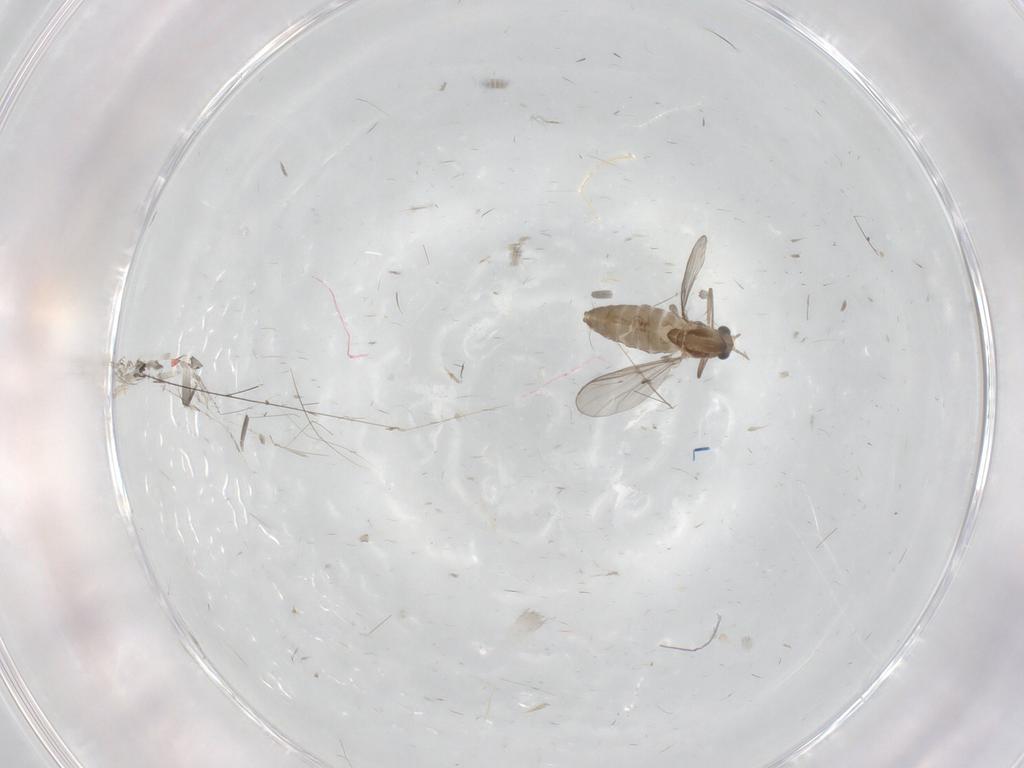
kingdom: Animalia
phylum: Arthropoda
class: Insecta
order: Diptera
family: Chironomidae
